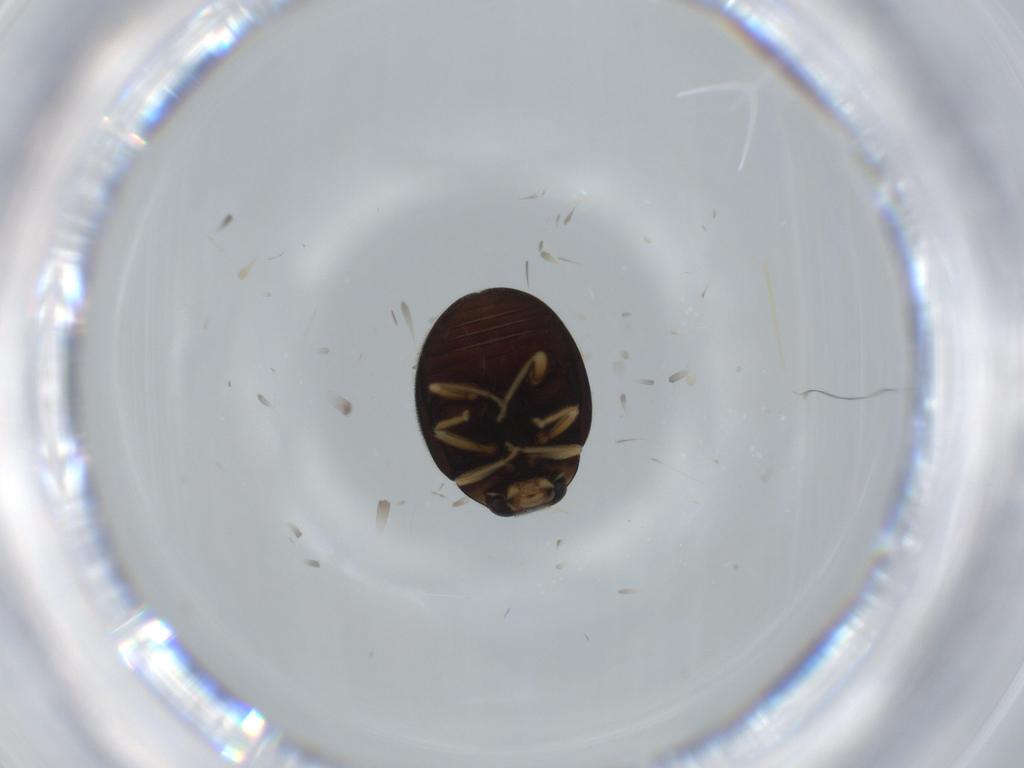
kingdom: Animalia
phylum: Arthropoda
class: Insecta
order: Coleoptera
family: Coccinellidae
